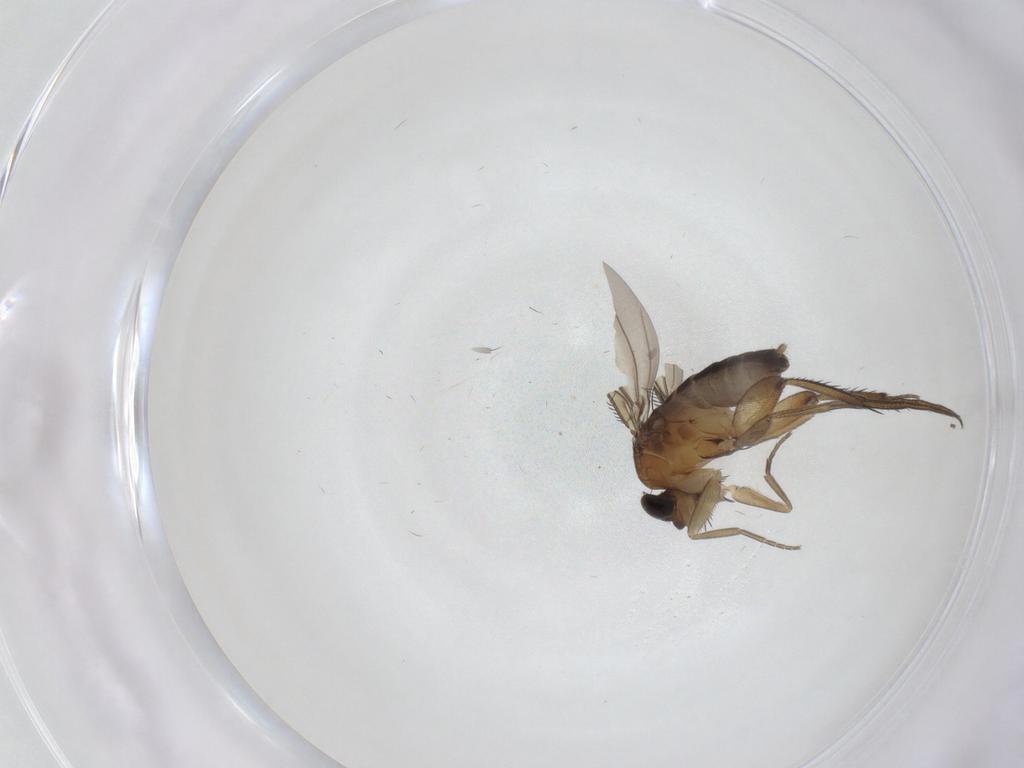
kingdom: Animalia
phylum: Arthropoda
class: Insecta
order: Diptera
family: Phoridae
